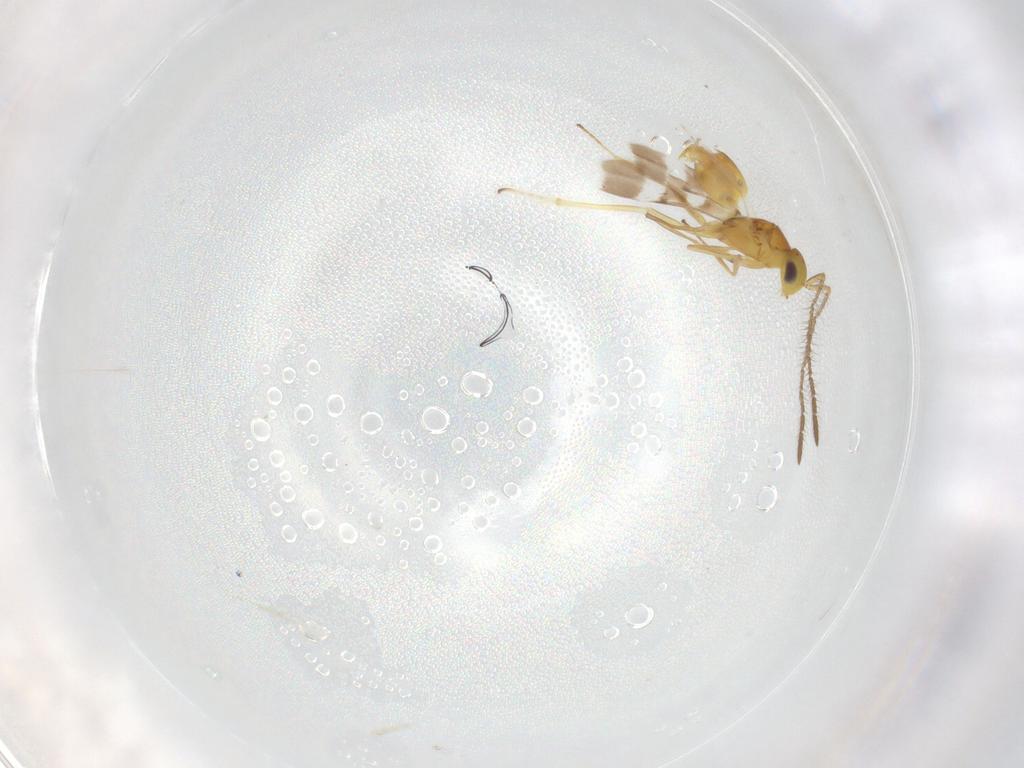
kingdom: Animalia
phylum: Arthropoda
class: Insecta
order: Hymenoptera
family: Encyrtidae
